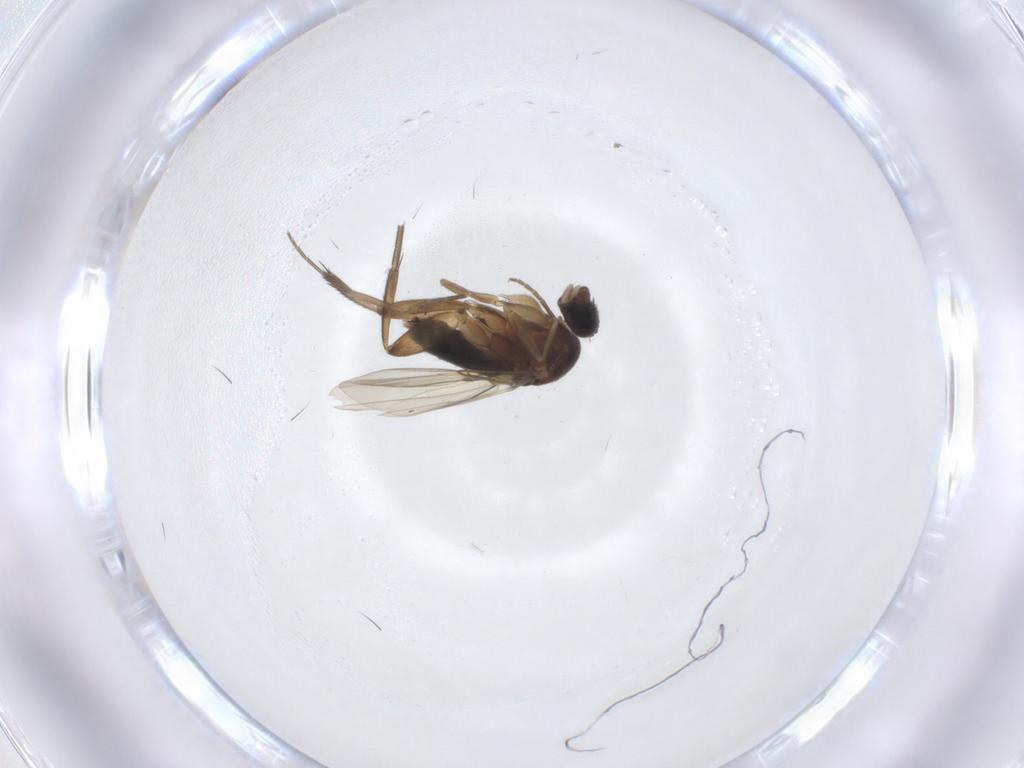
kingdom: Animalia
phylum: Arthropoda
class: Insecta
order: Diptera
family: Phoridae
